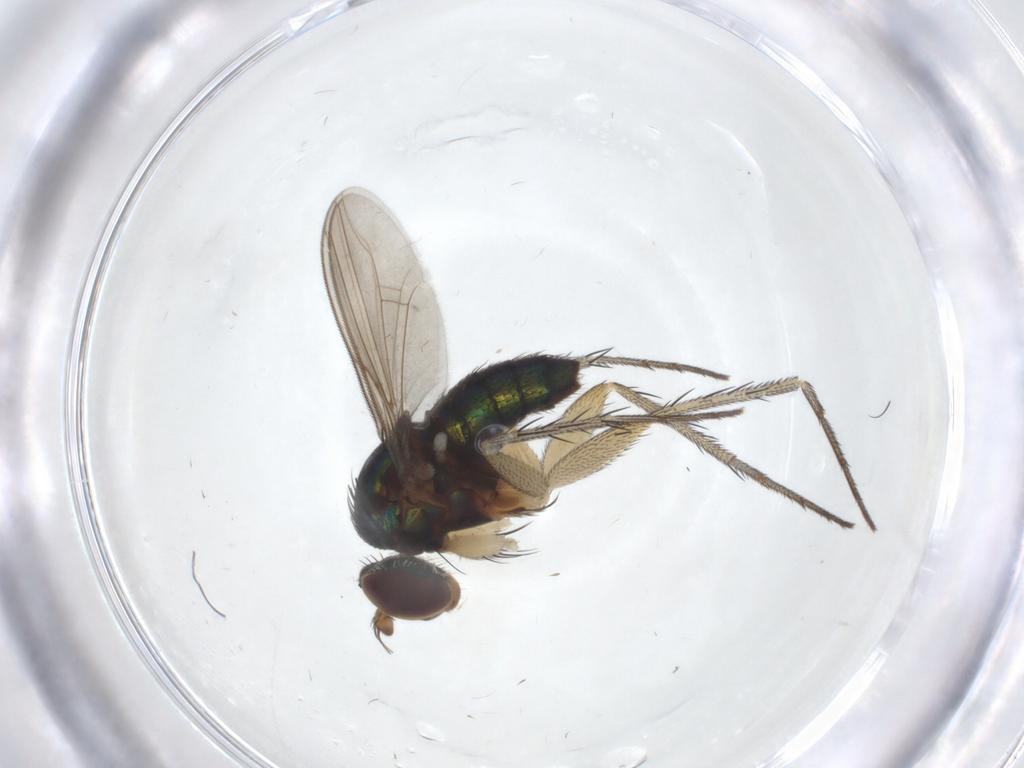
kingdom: Animalia
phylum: Arthropoda
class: Insecta
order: Diptera
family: Dolichopodidae
